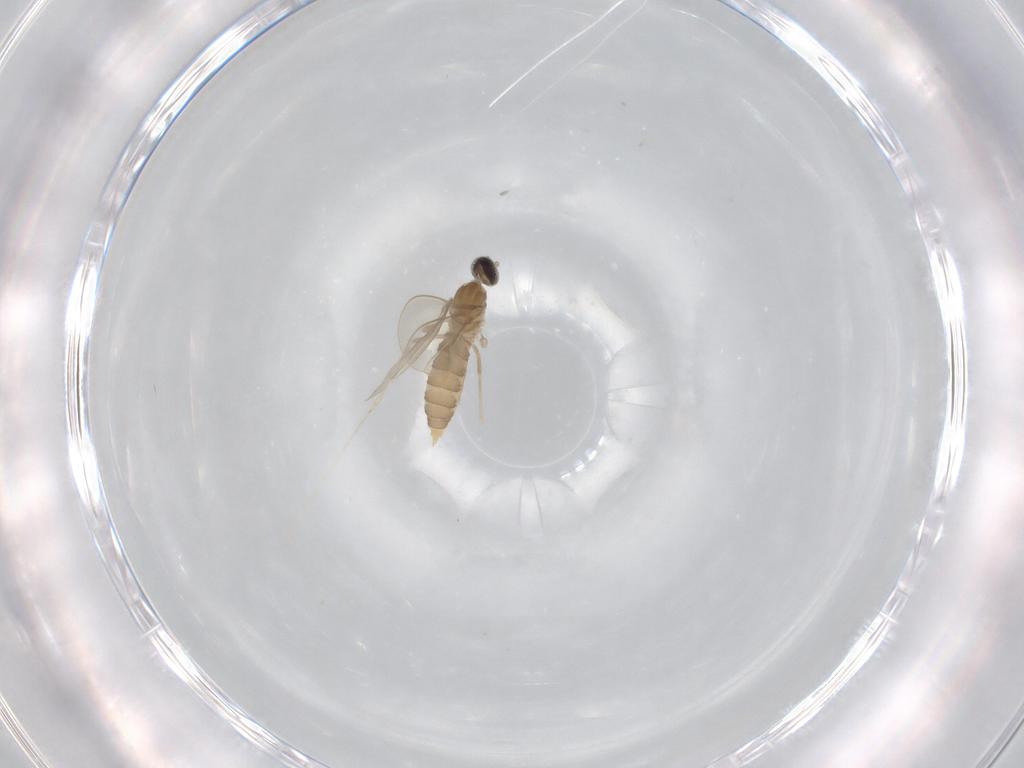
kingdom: Animalia
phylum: Arthropoda
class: Insecta
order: Diptera
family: Cecidomyiidae
